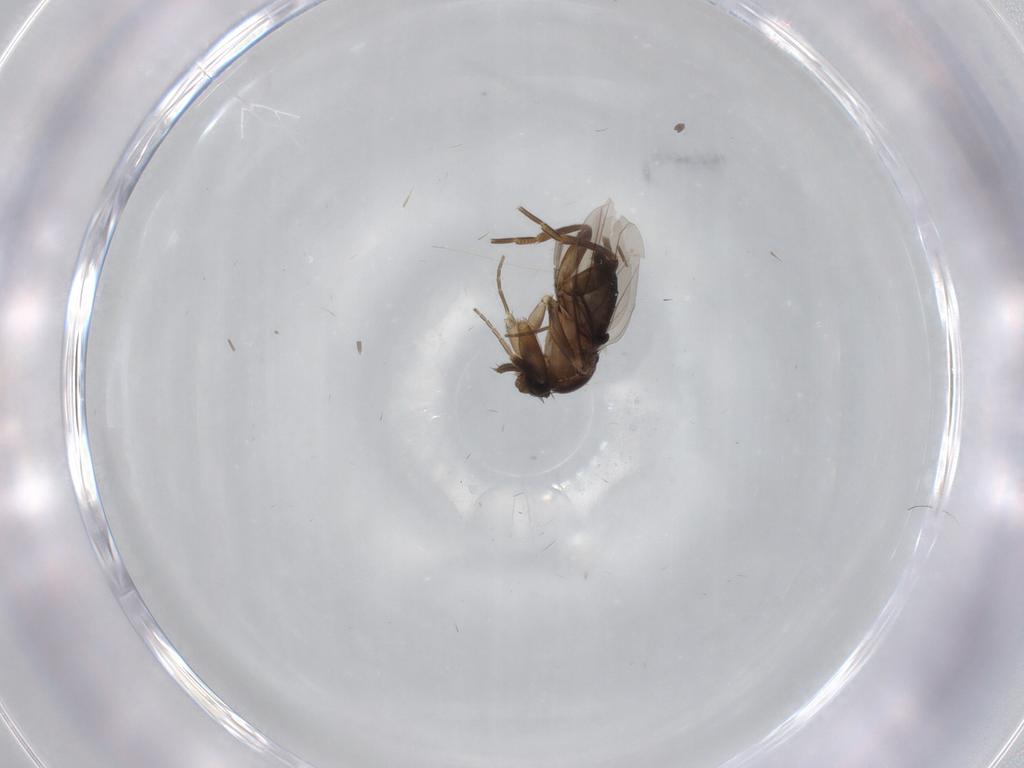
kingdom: Animalia
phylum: Arthropoda
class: Insecta
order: Diptera
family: Phoridae
